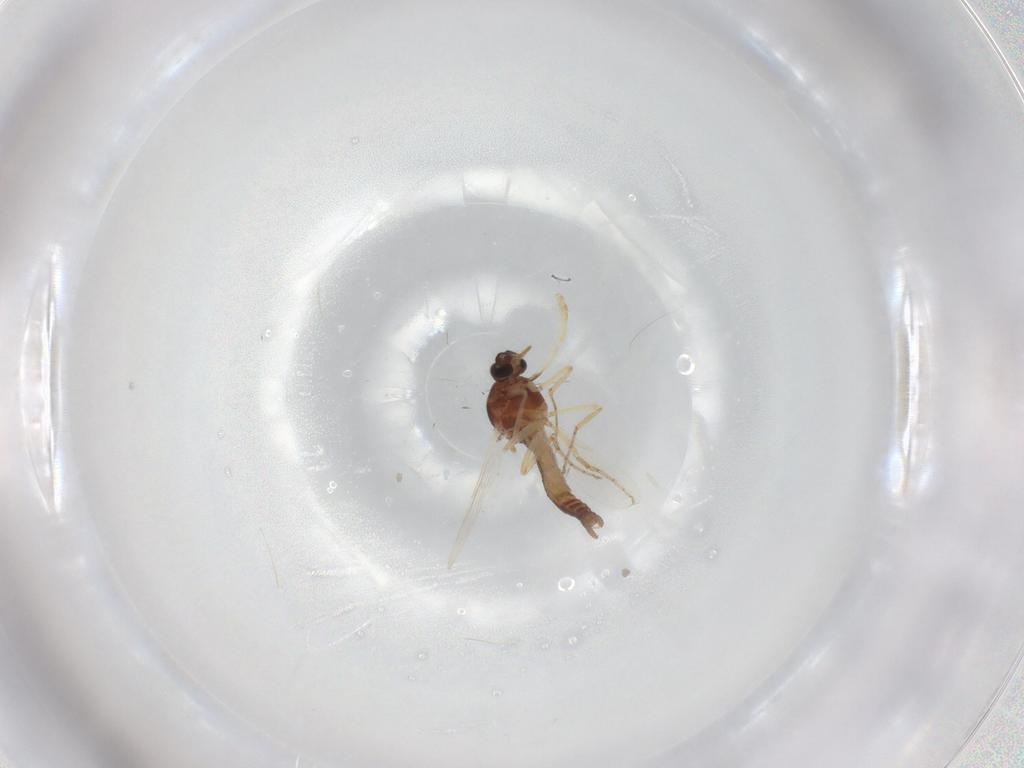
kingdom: Animalia
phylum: Arthropoda
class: Insecta
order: Diptera
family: Ceratopogonidae
